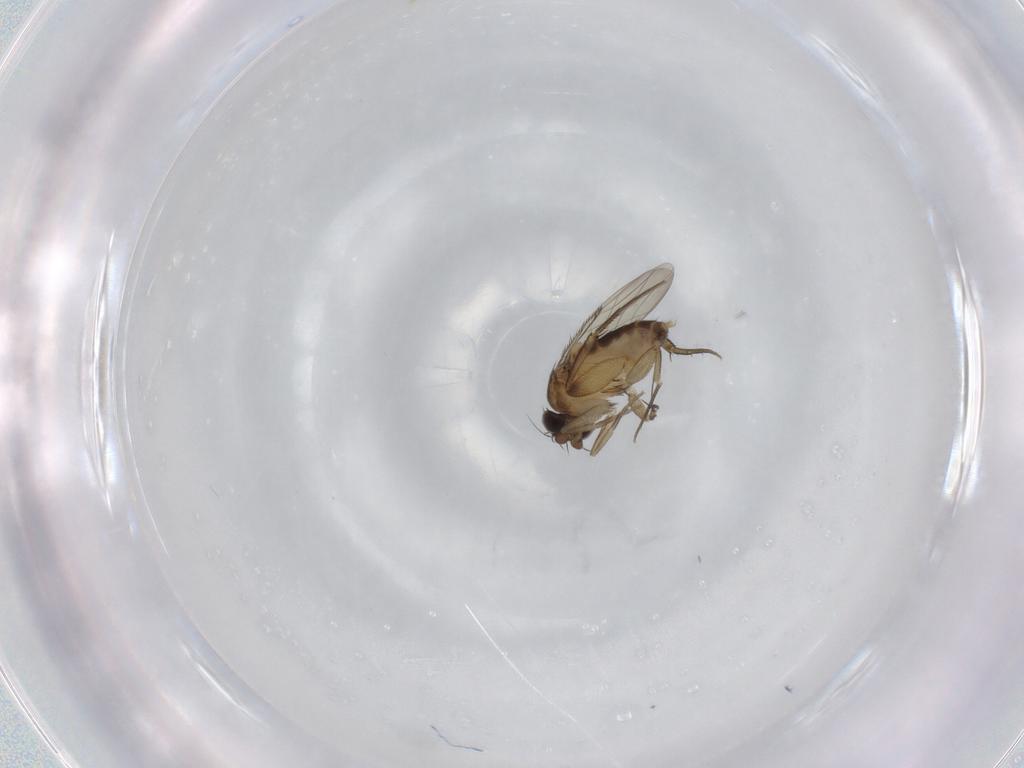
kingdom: Animalia
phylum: Arthropoda
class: Insecta
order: Diptera
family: Phoridae
